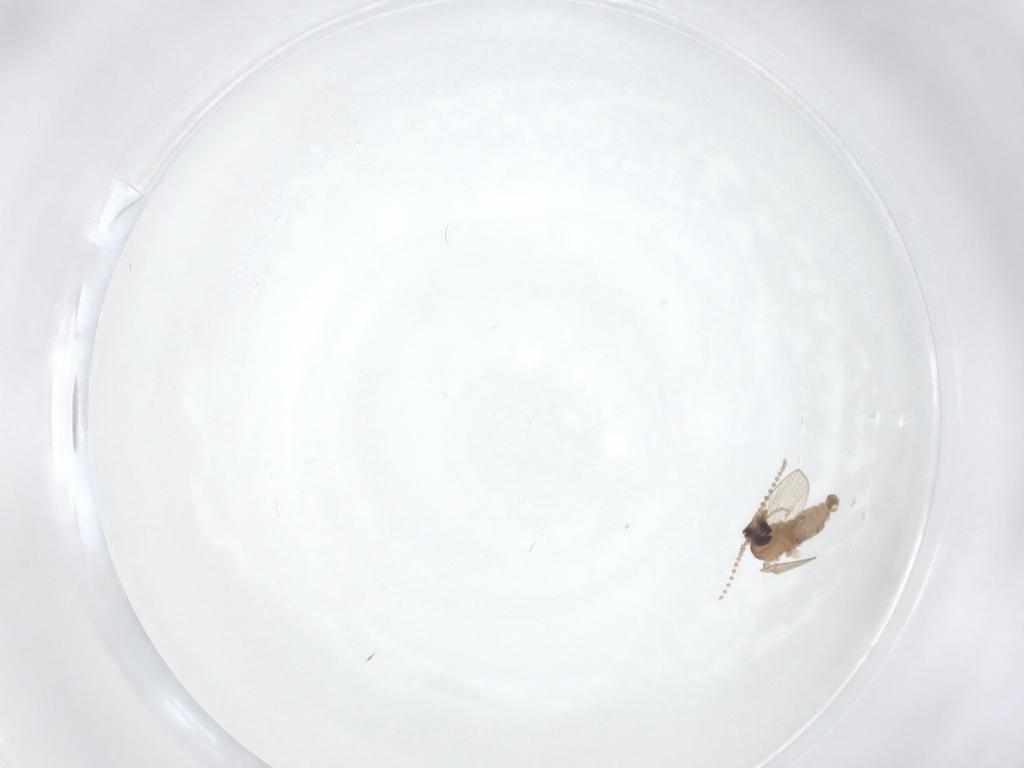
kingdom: Animalia
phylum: Arthropoda
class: Insecta
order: Diptera
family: Psychodidae
